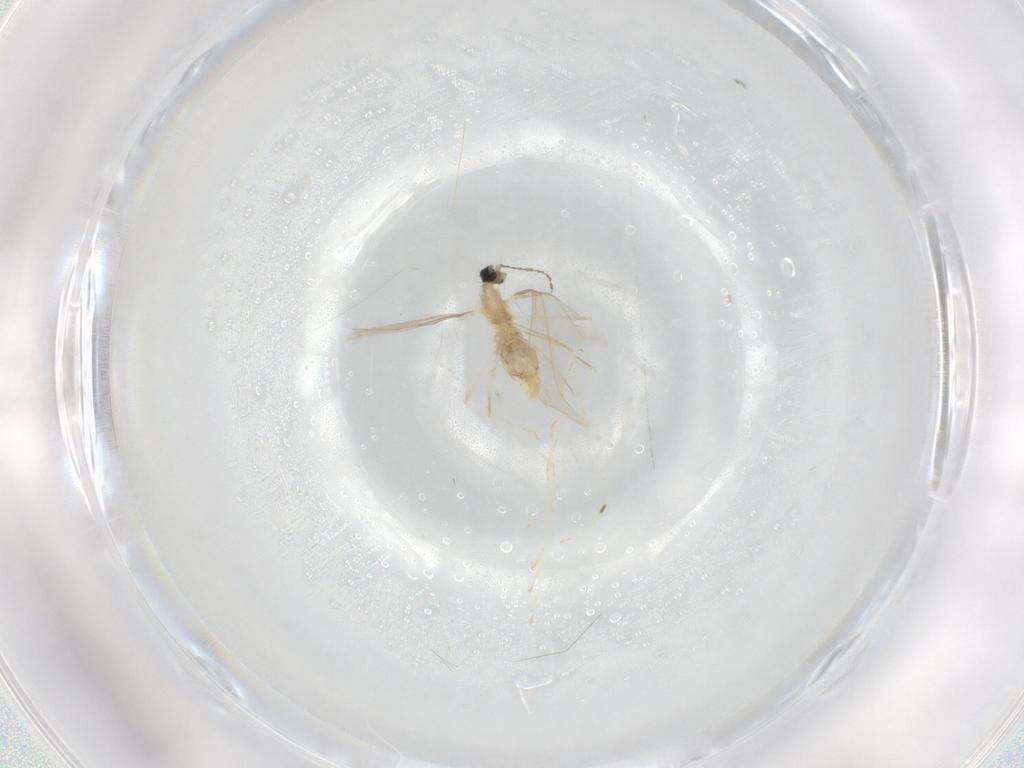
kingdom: Animalia
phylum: Arthropoda
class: Insecta
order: Diptera
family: Cecidomyiidae
